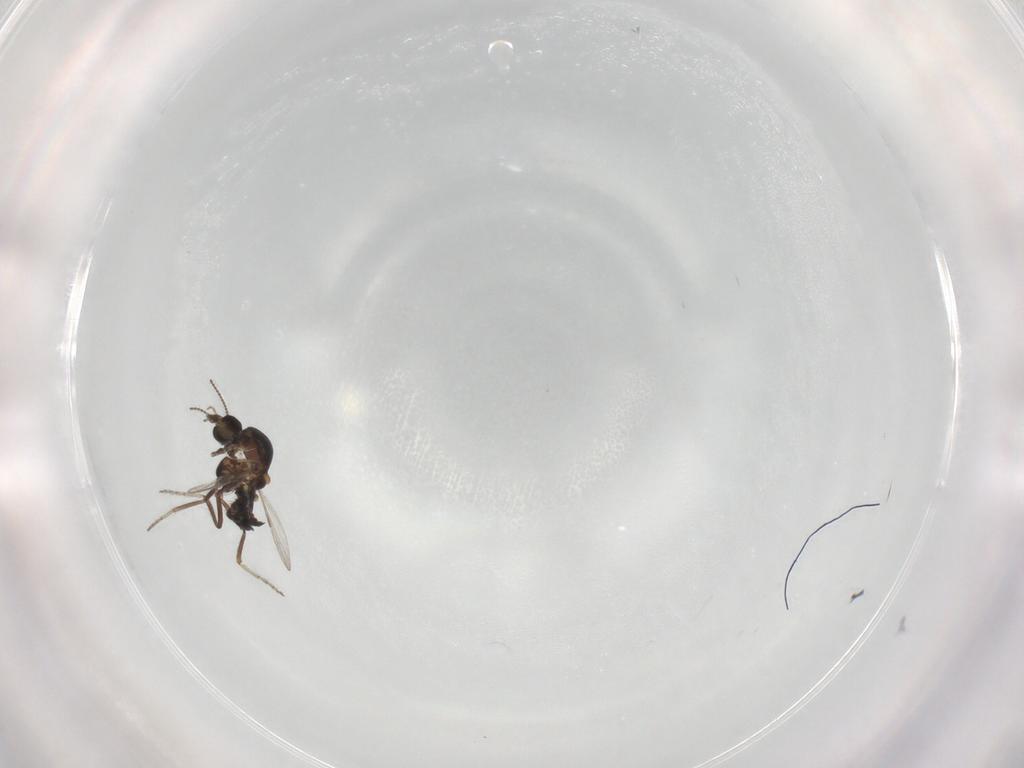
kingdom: Animalia
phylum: Arthropoda
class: Insecta
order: Diptera
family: Ceratopogonidae
